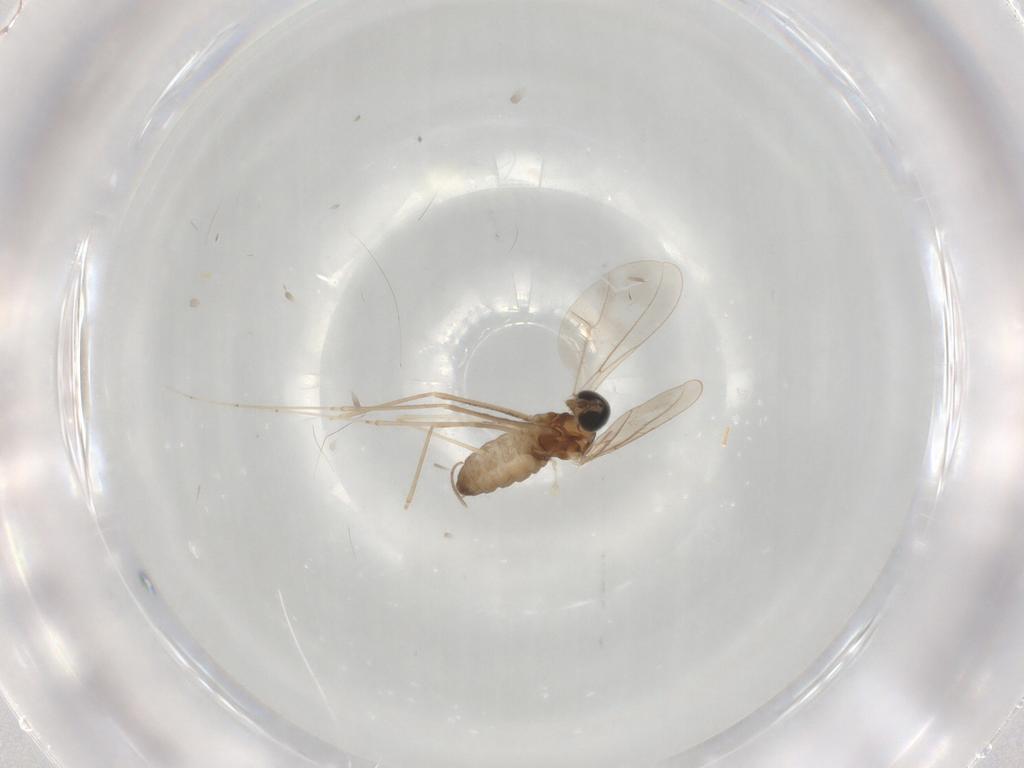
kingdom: Animalia
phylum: Arthropoda
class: Insecta
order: Diptera
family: Cecidomyiidae
